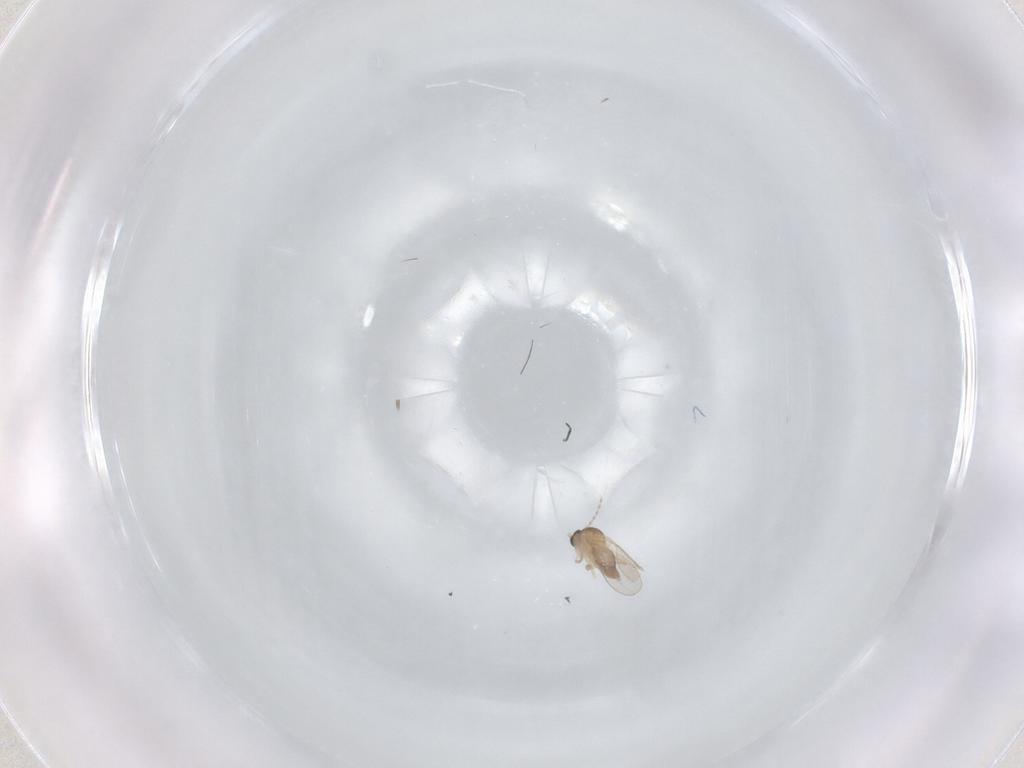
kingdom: Animalia
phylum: Arthropoda
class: Insecta
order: Diptera
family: Cecidomyiidae
